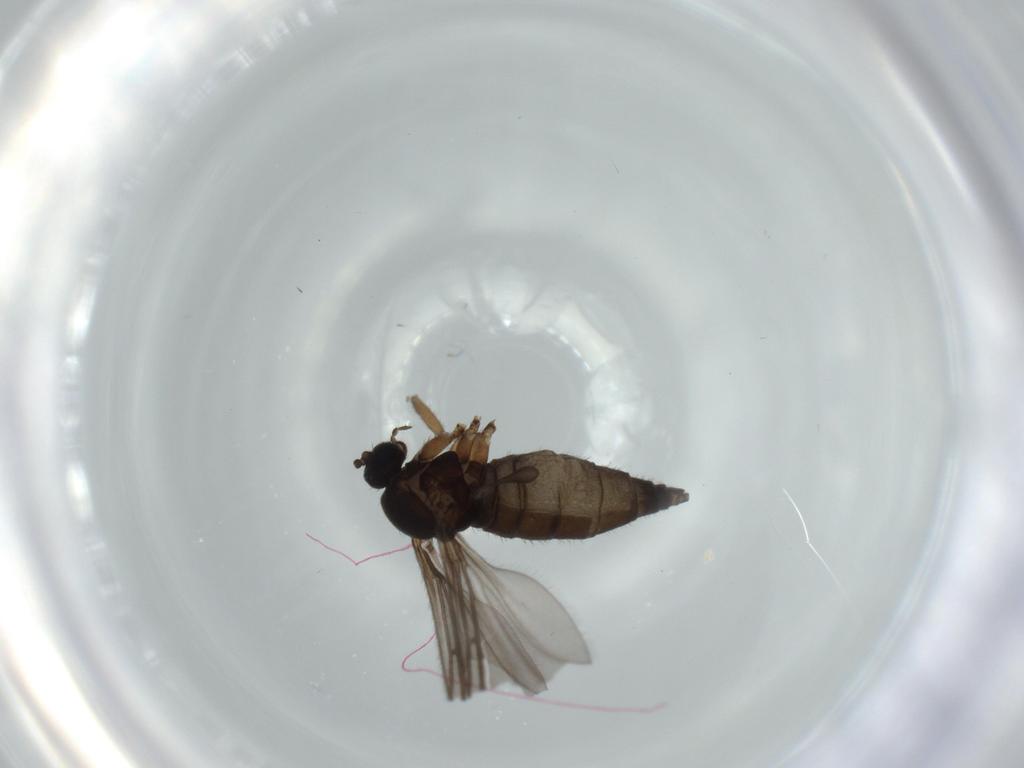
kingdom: Animalia
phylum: Arthropoda
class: Insecta
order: Diptera
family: Sciaridae
